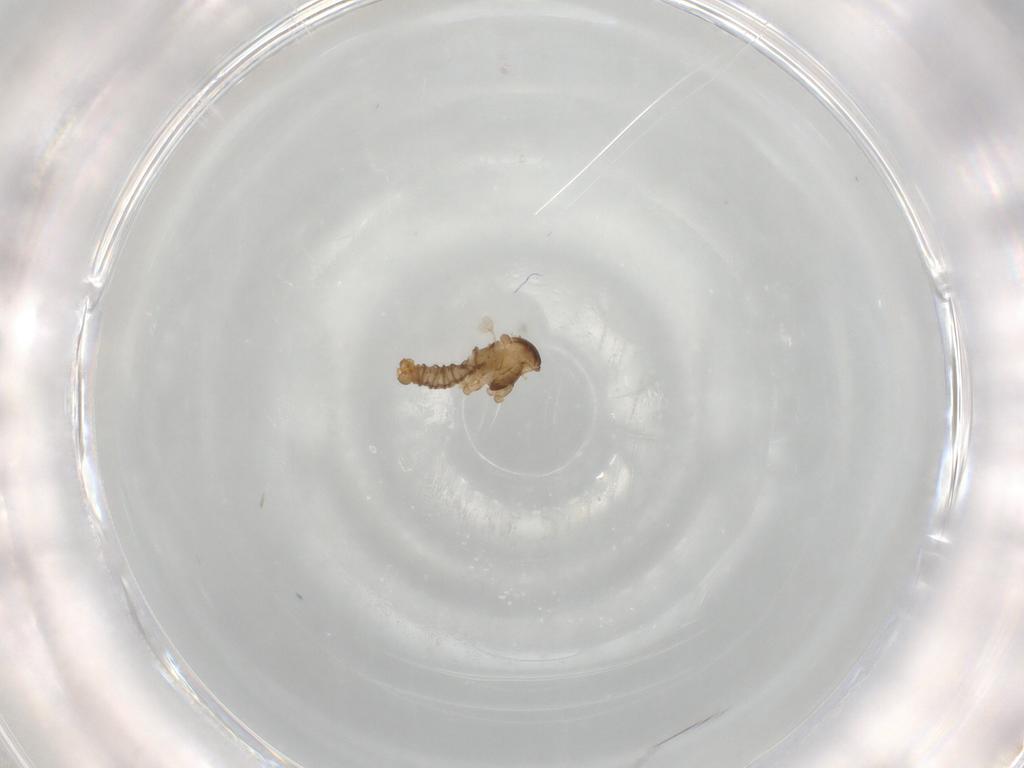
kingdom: Animalia
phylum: Arthropoda
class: Insecta
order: Diptera
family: Cecidomyiidae
